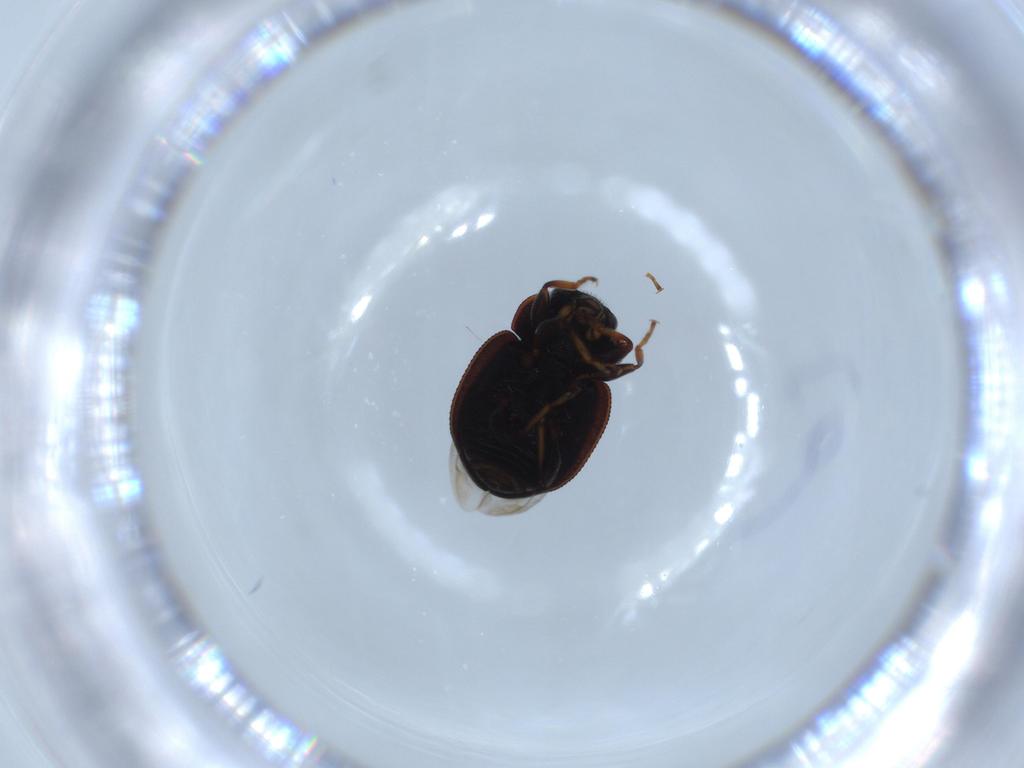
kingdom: Animalia
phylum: Arthropoda
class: Insecta
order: Coleoptera
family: Coccinellidae
